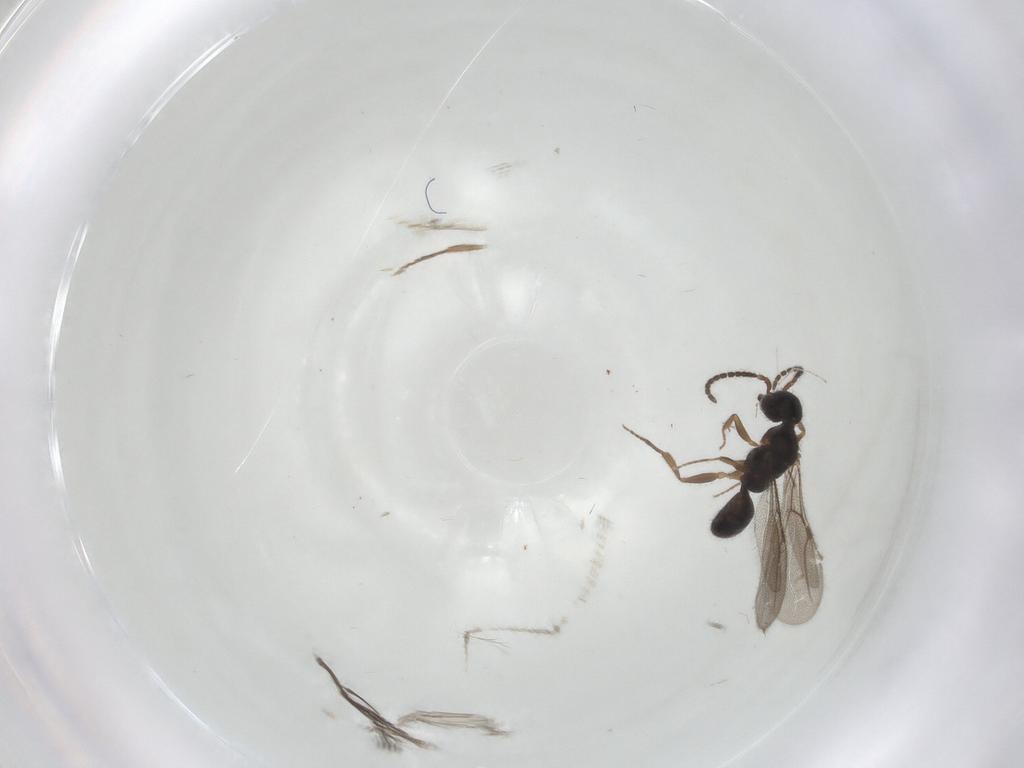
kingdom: Animalia
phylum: Arthropoda
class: Insecta
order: Hymenoptera
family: Bethylidae
